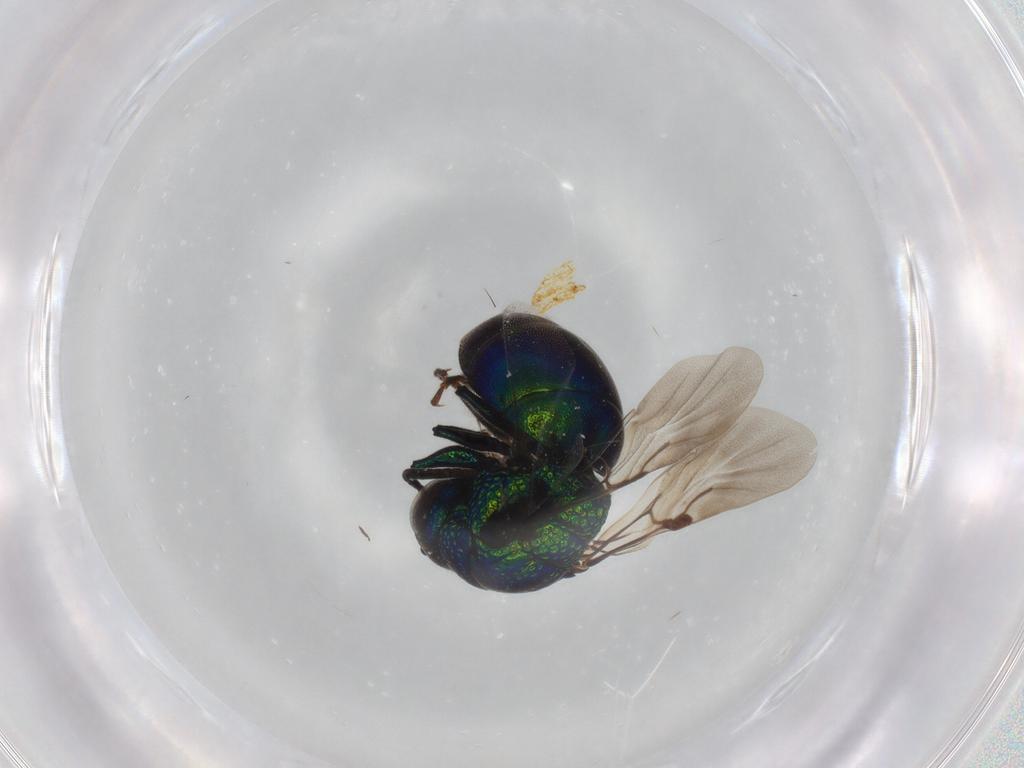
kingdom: Animalia
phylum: Arthropoda
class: Insecta
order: Hymenoptera
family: Chrysididae
